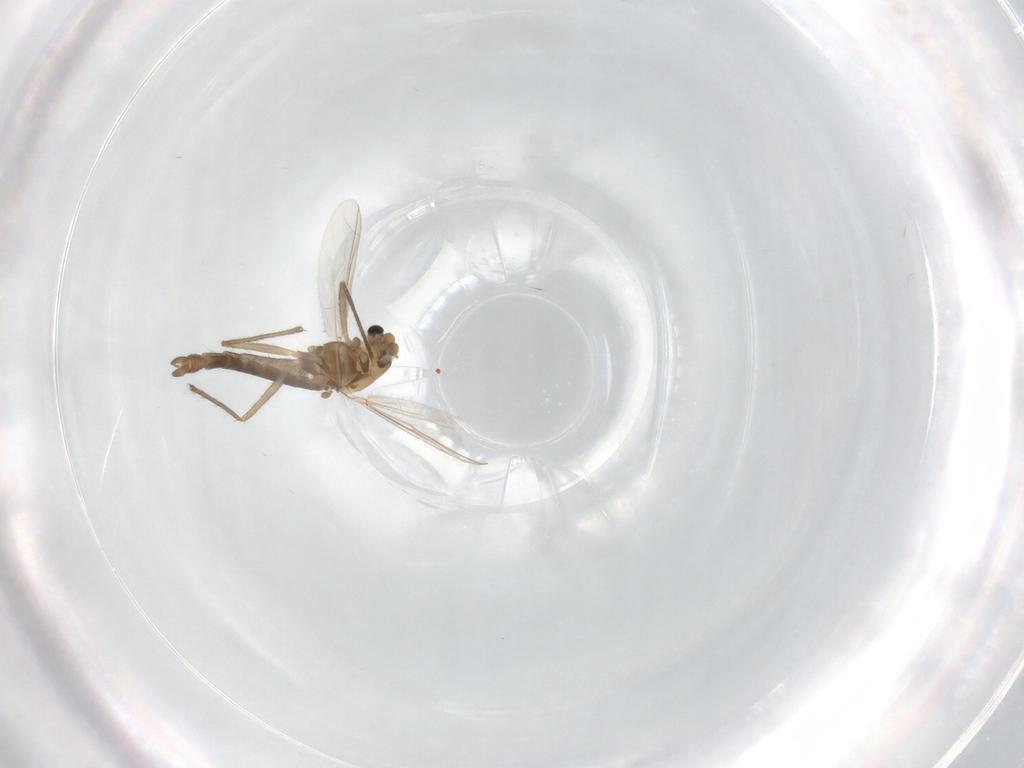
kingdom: Animalia
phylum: Arthropoda
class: Insecta
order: Diptera
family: Chironomidae
